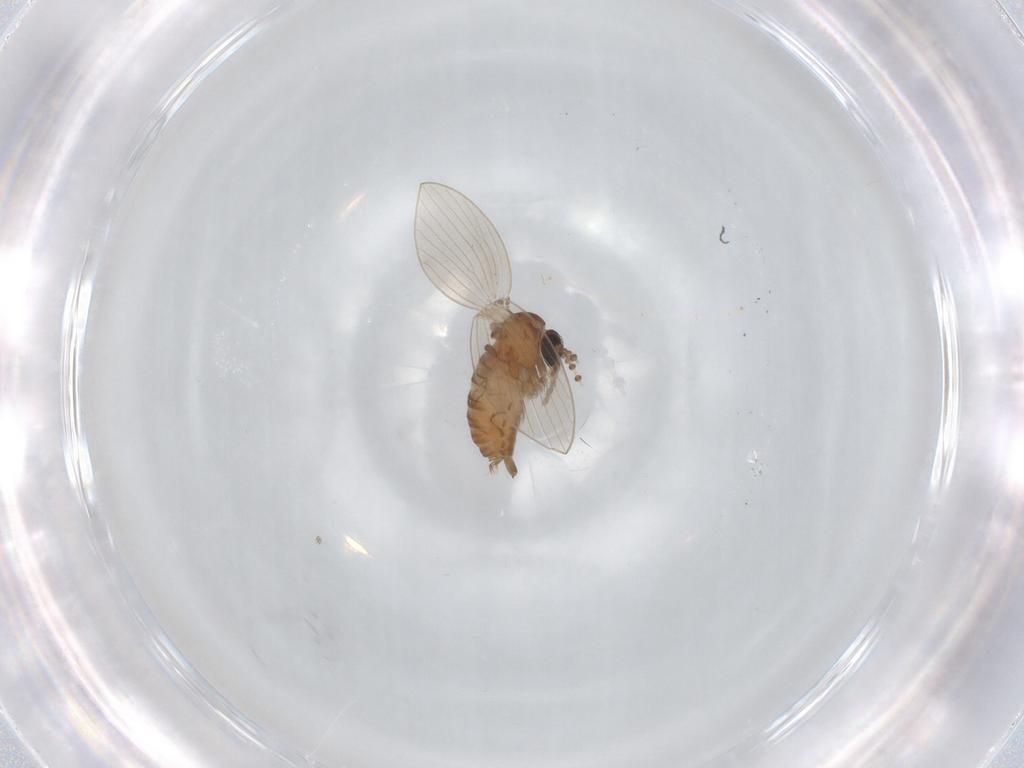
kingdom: Animalia
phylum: Arthropoda
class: Insecta
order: Diptera
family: Psychodidae
